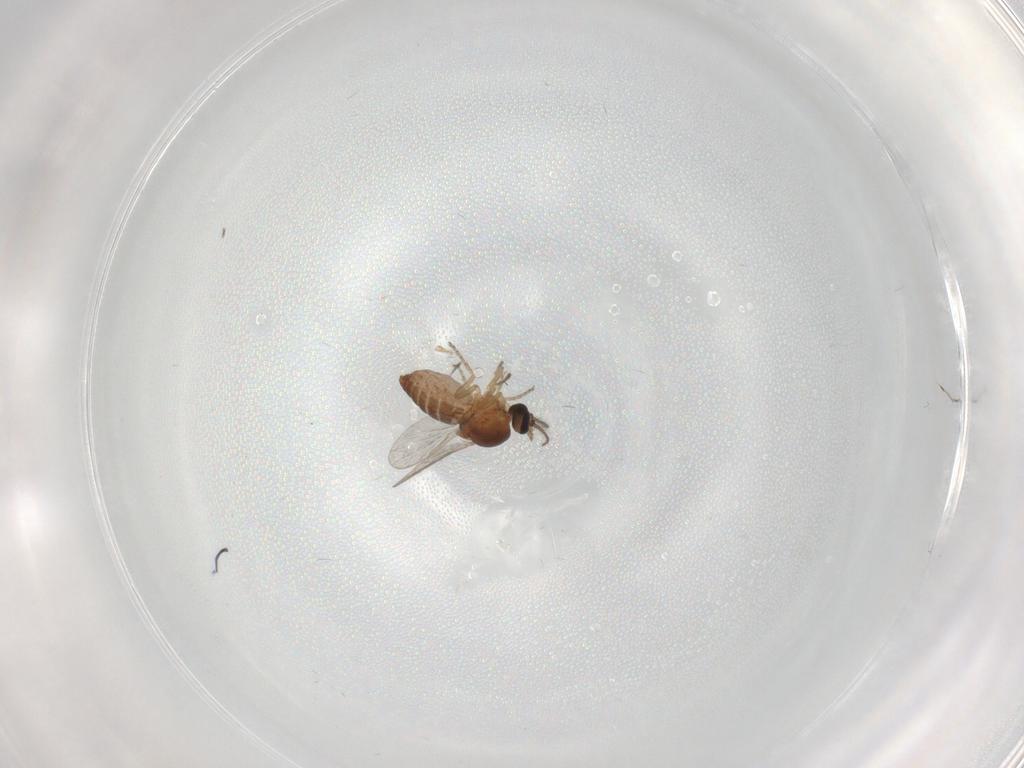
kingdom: Animalia
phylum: Arthropoda
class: Insecta
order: Diptera
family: Ceratopogonidae
